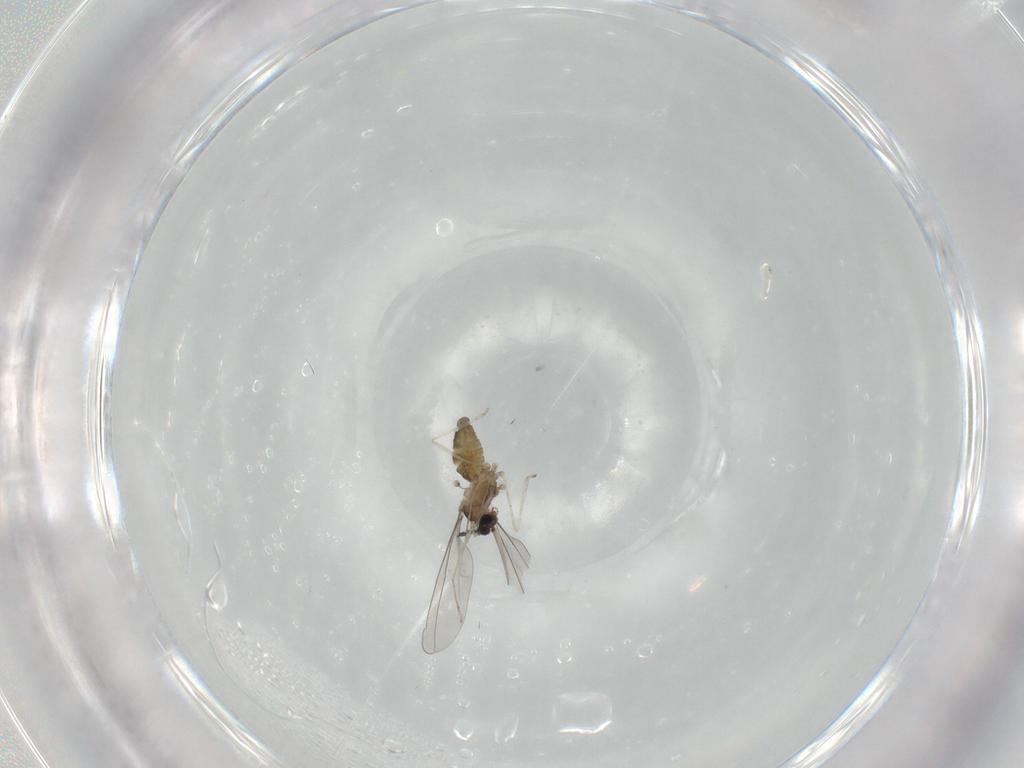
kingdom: Animalia
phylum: Arthropoda
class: Insecta
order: Diptera
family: Cecidomyiidae
